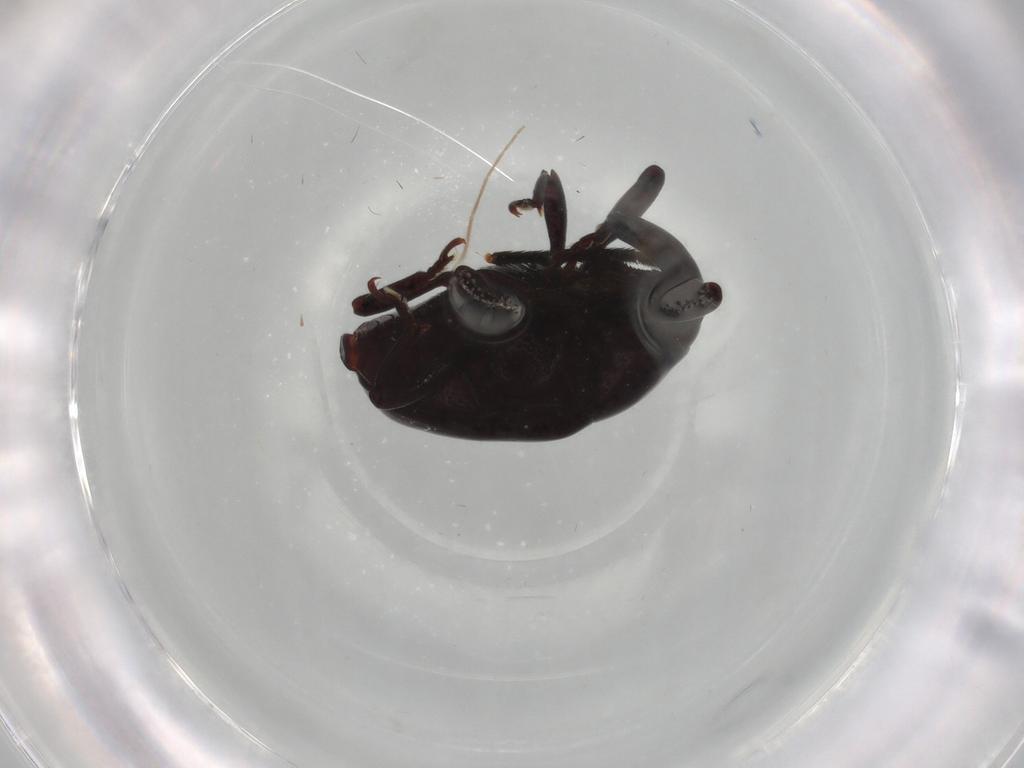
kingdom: Animalia
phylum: Arthropoda
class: Insecta
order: Coleoptera
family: Curculionidae
